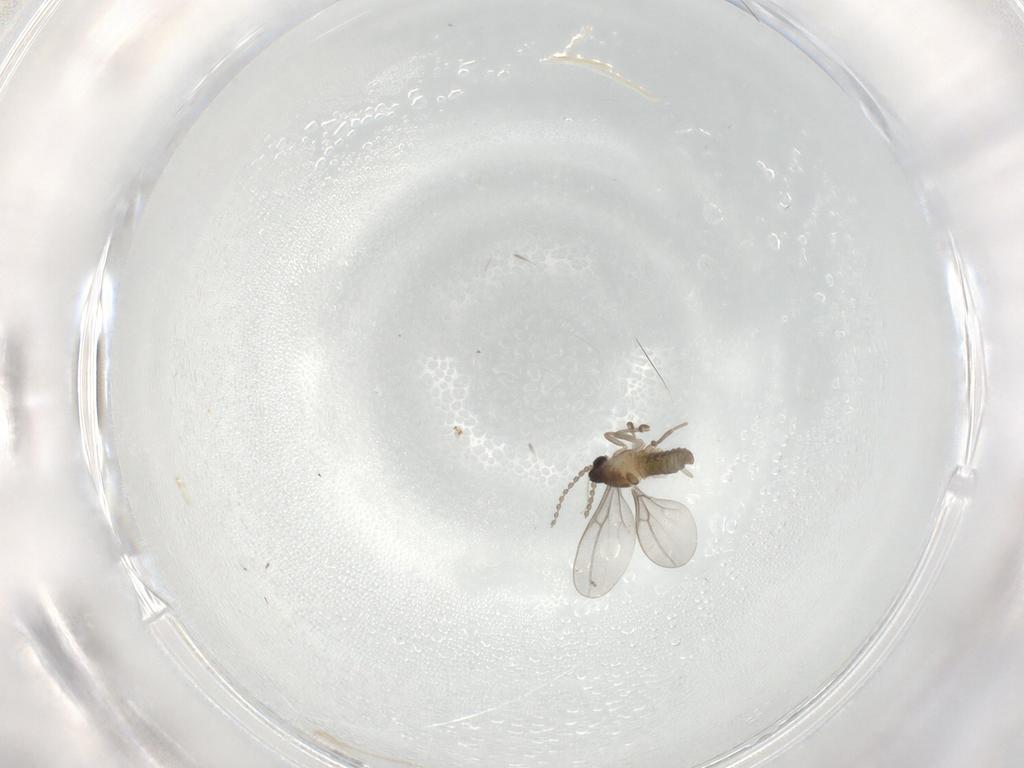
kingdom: Animalia
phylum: Arthropoda
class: Insecta
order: Diptera
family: Cecidomyiidae
